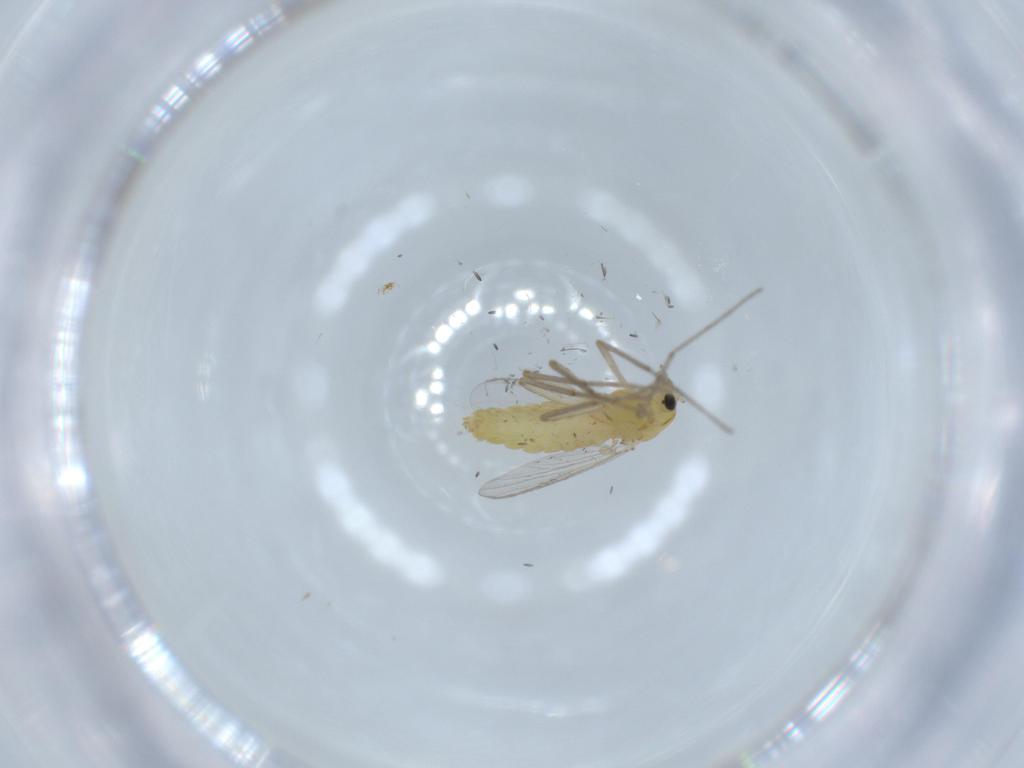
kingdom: Animalia
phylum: Arthropoda
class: Insecta
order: Diptera
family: Chironomidae
